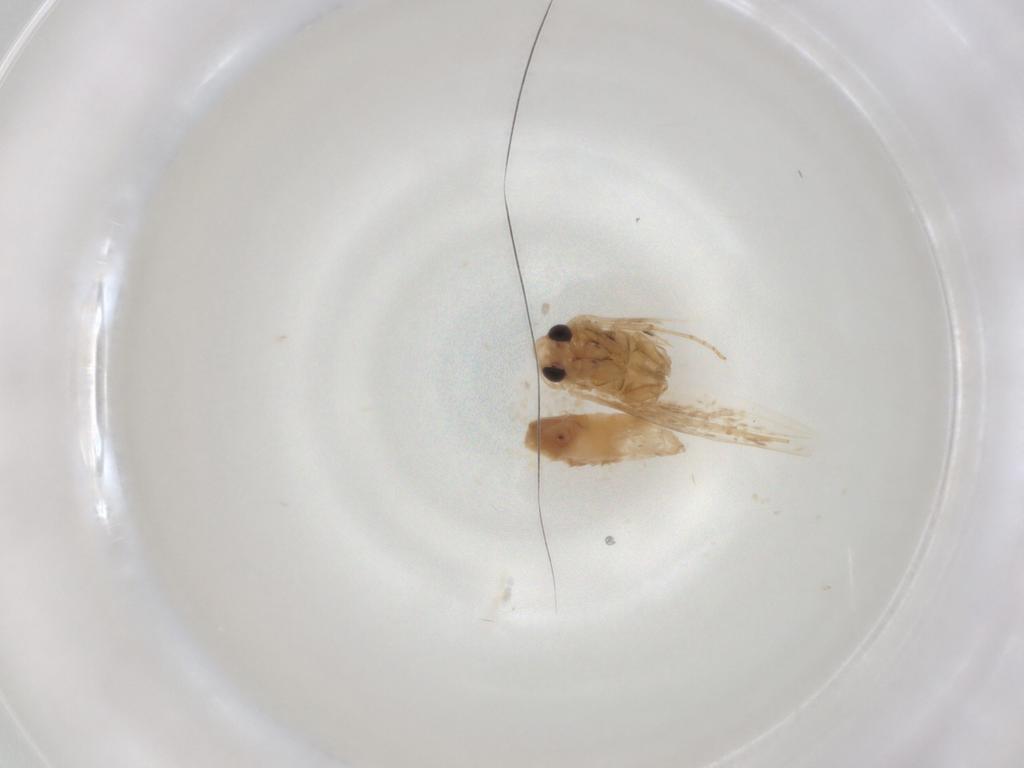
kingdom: Animalia
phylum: Arthropoda
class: Insecta
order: Lepidoptera
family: Bucculatricidae
